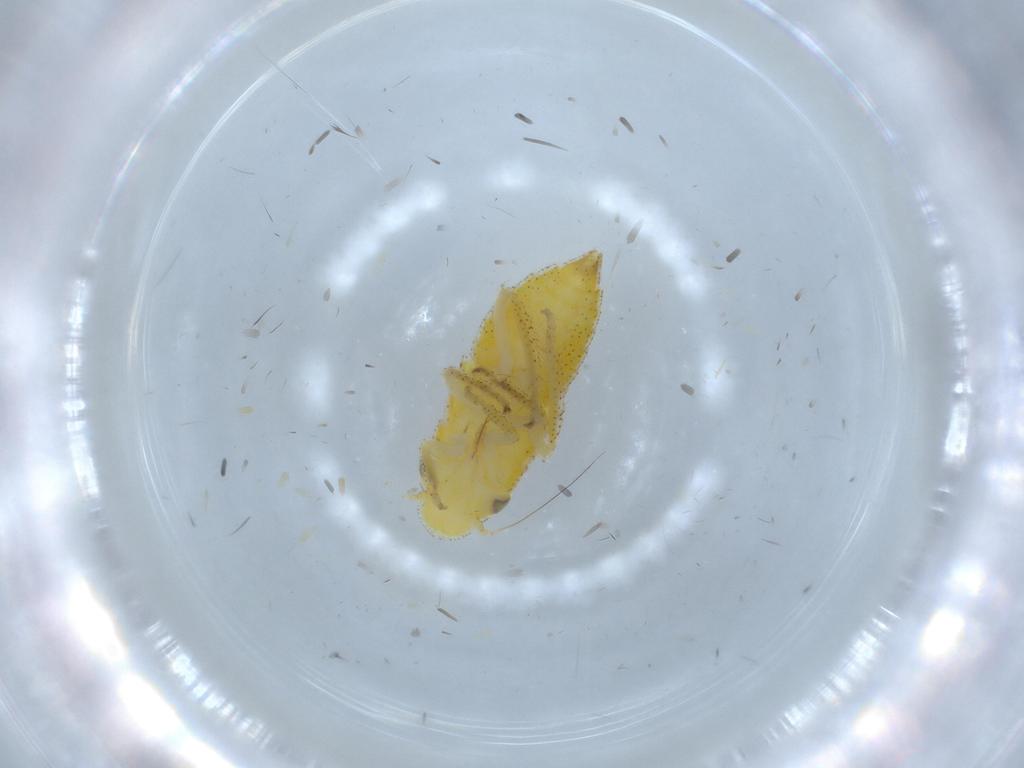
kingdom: Animalia
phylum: Arthropoda
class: Insecta
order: Hemiptera
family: Cicadellidae
